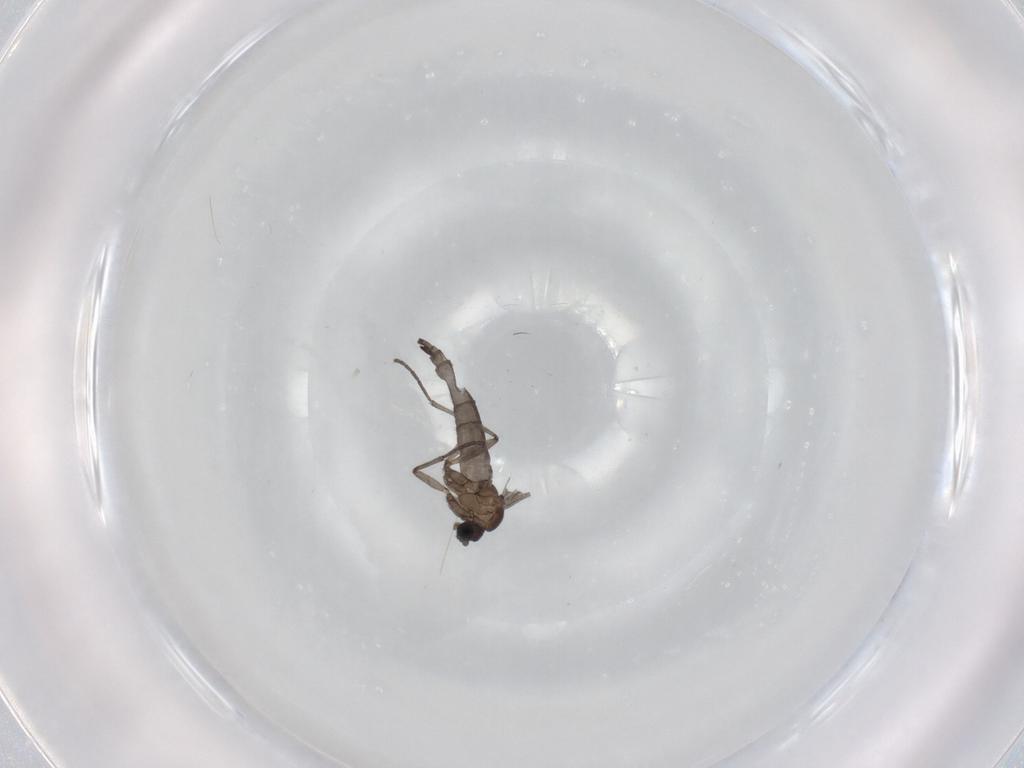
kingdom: Animalia
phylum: Arthropoda
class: Insecta
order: Diptera
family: Sciaridae
